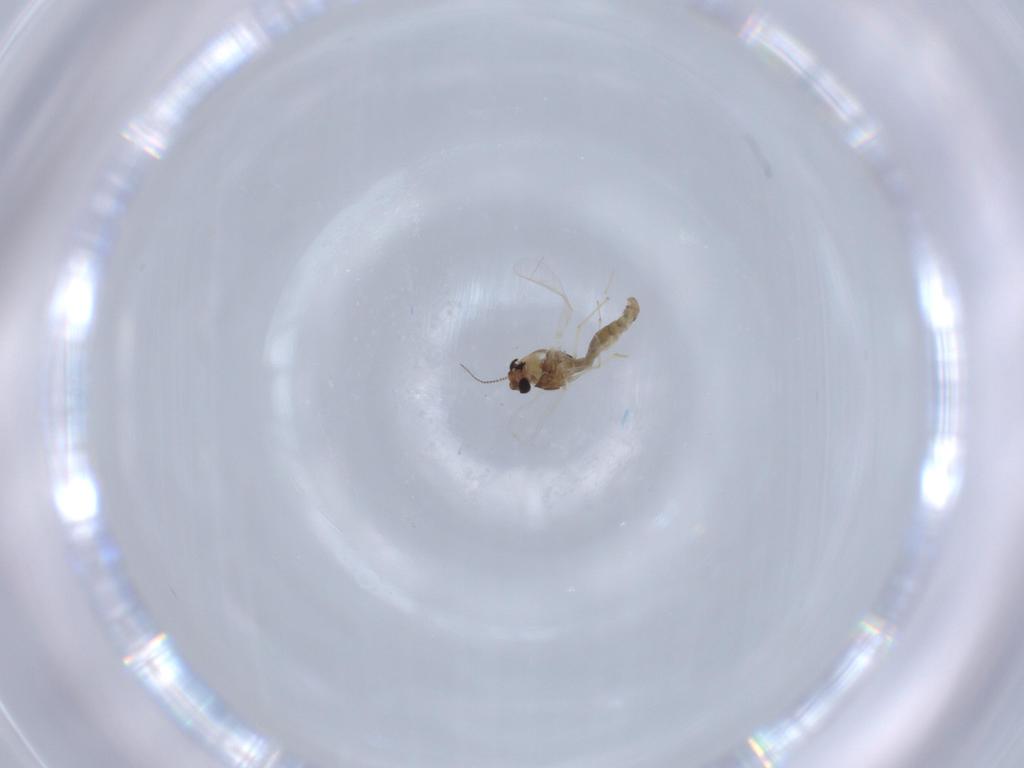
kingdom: Animalia
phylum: Arthropoda
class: Insecta
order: Diptera
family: Chironomidae
